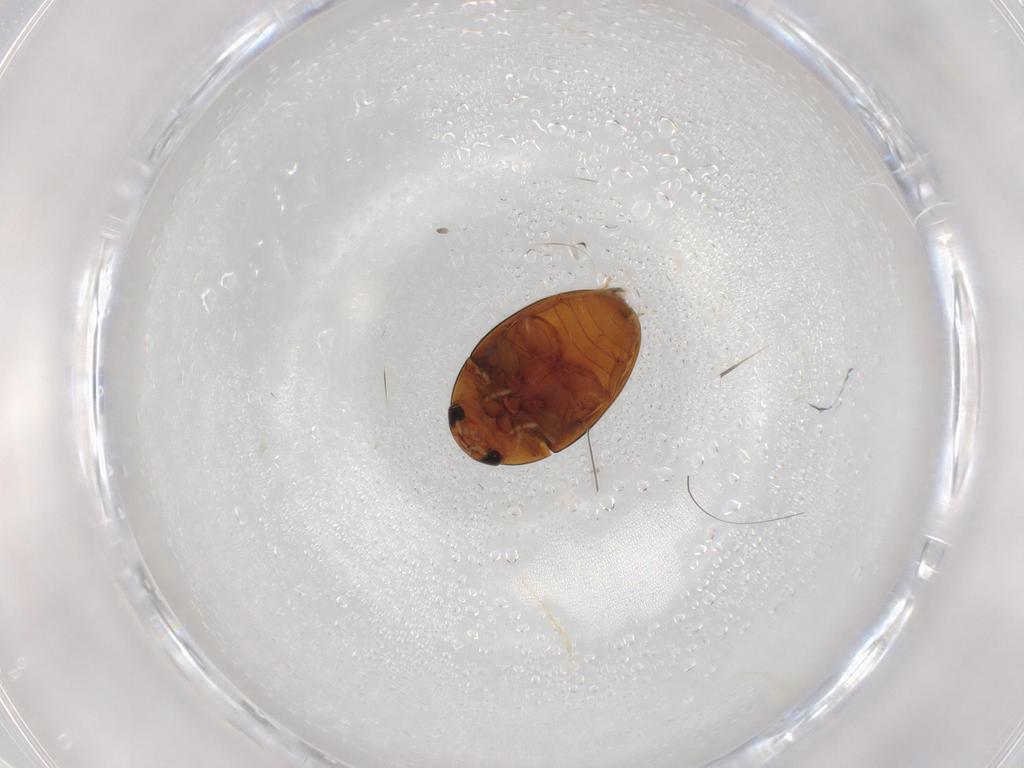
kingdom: Animalia
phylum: Arthropoda
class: Insecta
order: Coleoptera
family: Phalacridae
